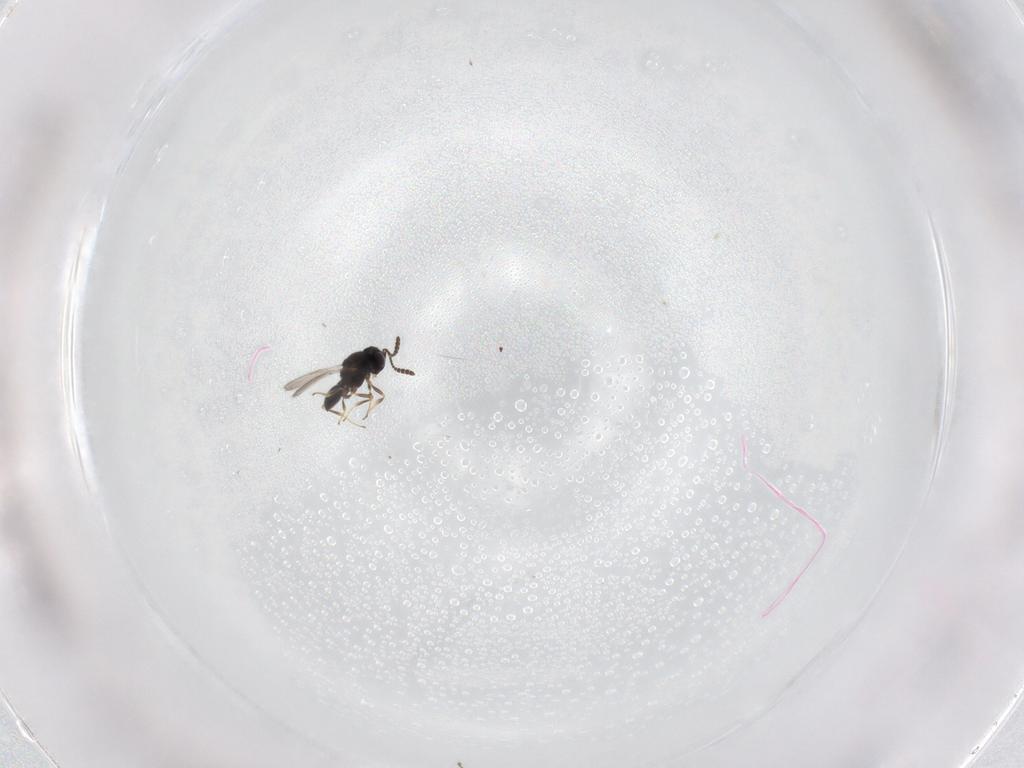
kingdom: Animalia
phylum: Arthropoda
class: Insecta
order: Hymenoptera
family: Scelionidae
